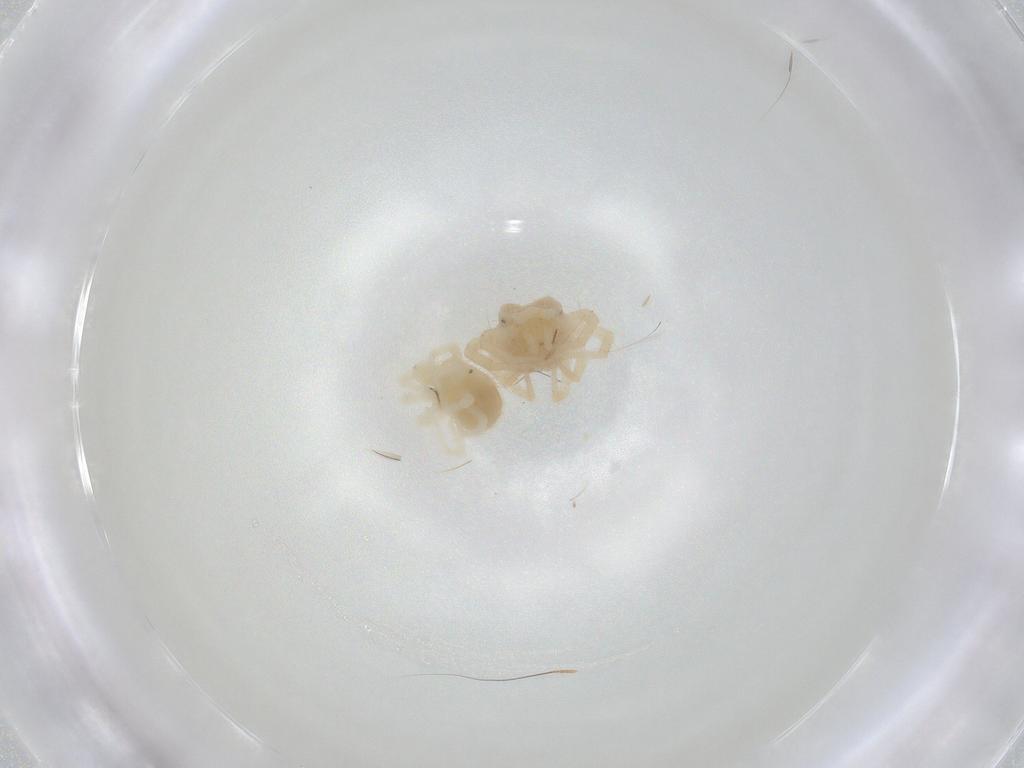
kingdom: Animalia
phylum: Arthropoda
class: Arachnida
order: Trombidiformes
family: Anystidae
